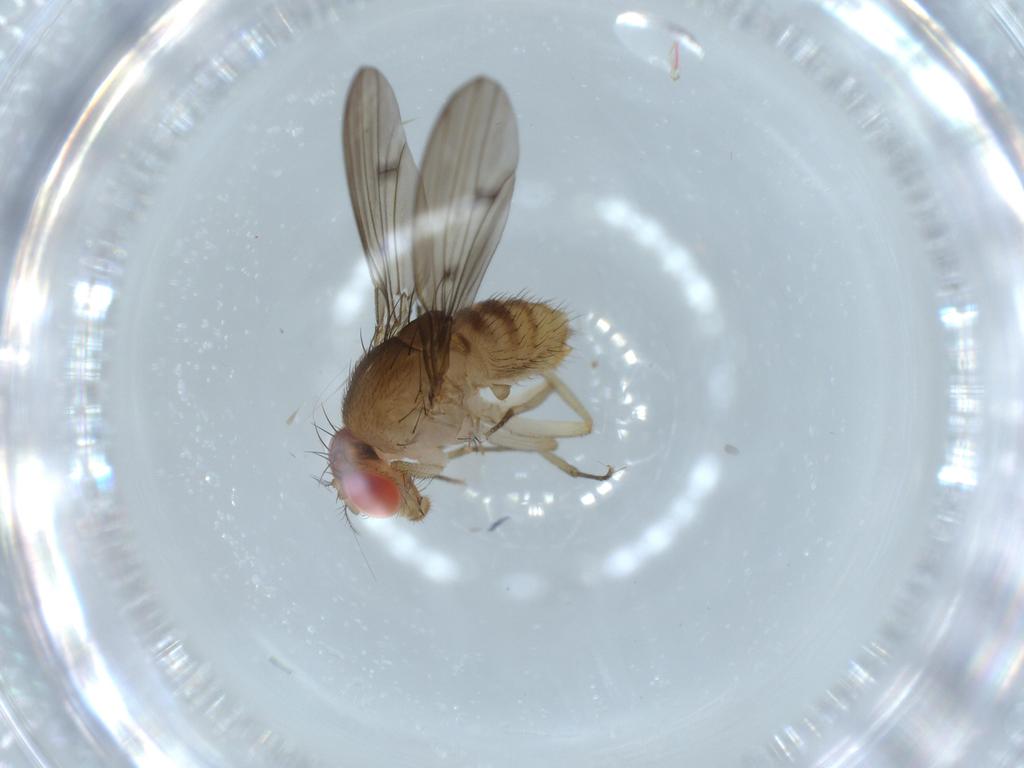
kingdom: Animalia
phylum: Arthropoda
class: Insecta
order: Diptera
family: Drosophilidae
